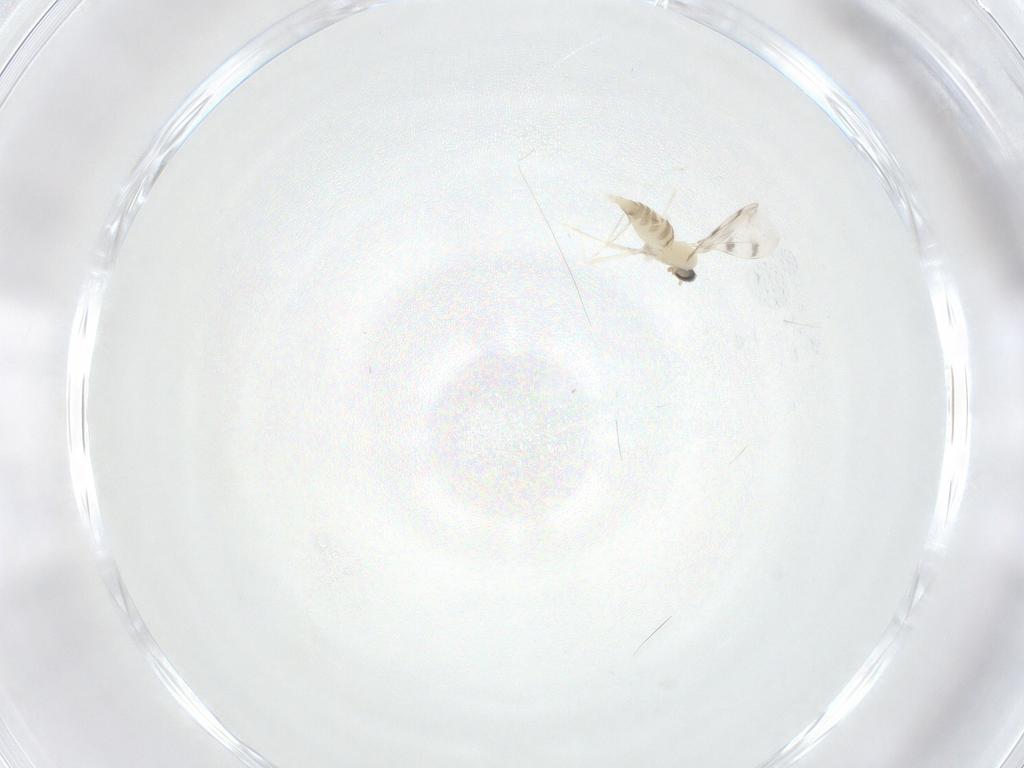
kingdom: Animalia
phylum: Arthropoda
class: Insecta
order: Diptera
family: Cecidomyiidae
